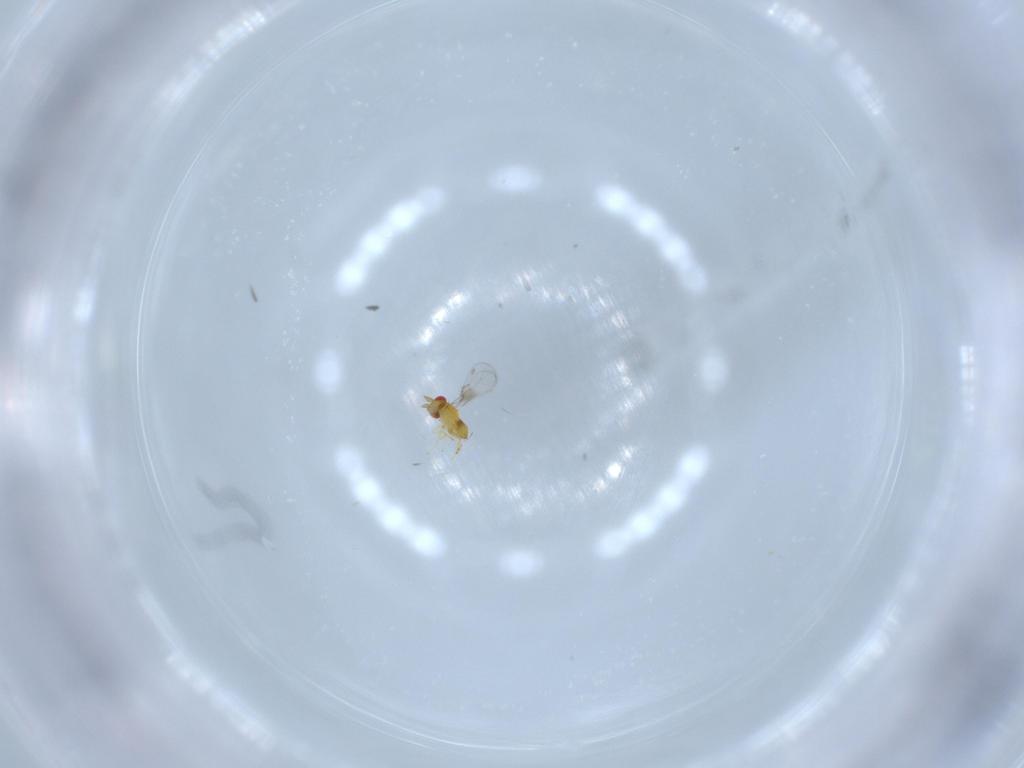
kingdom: Animalia
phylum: Arthropoda
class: Insecta
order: Hymenoptera
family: Trichogrammatidae
